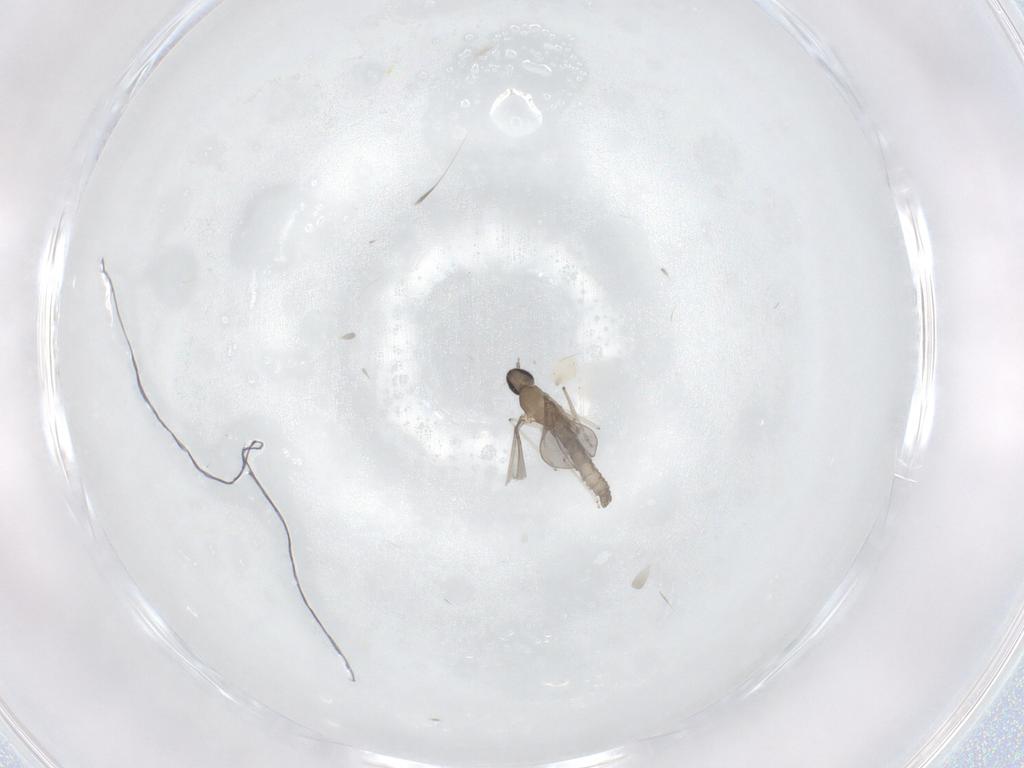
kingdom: Animalia
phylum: Arthropoda
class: Insecta
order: Diptera
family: Cecidomyiidae
